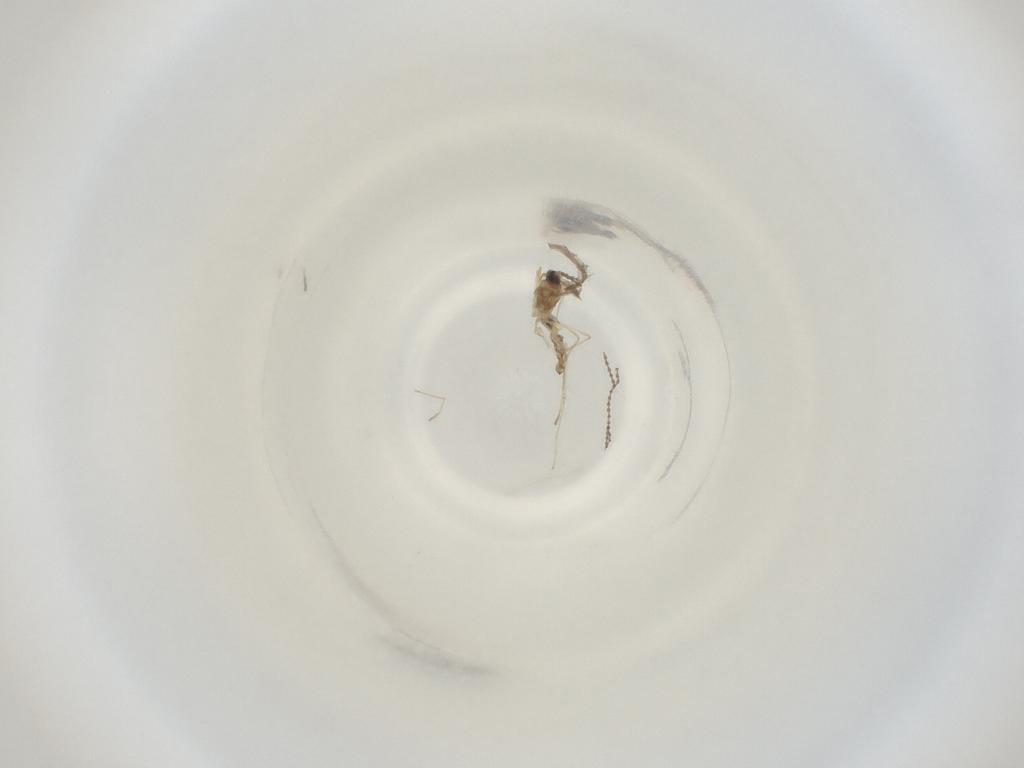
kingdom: Animalia
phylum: Arthropoda
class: Insecta
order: Diptera
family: Cecidomyiidae
